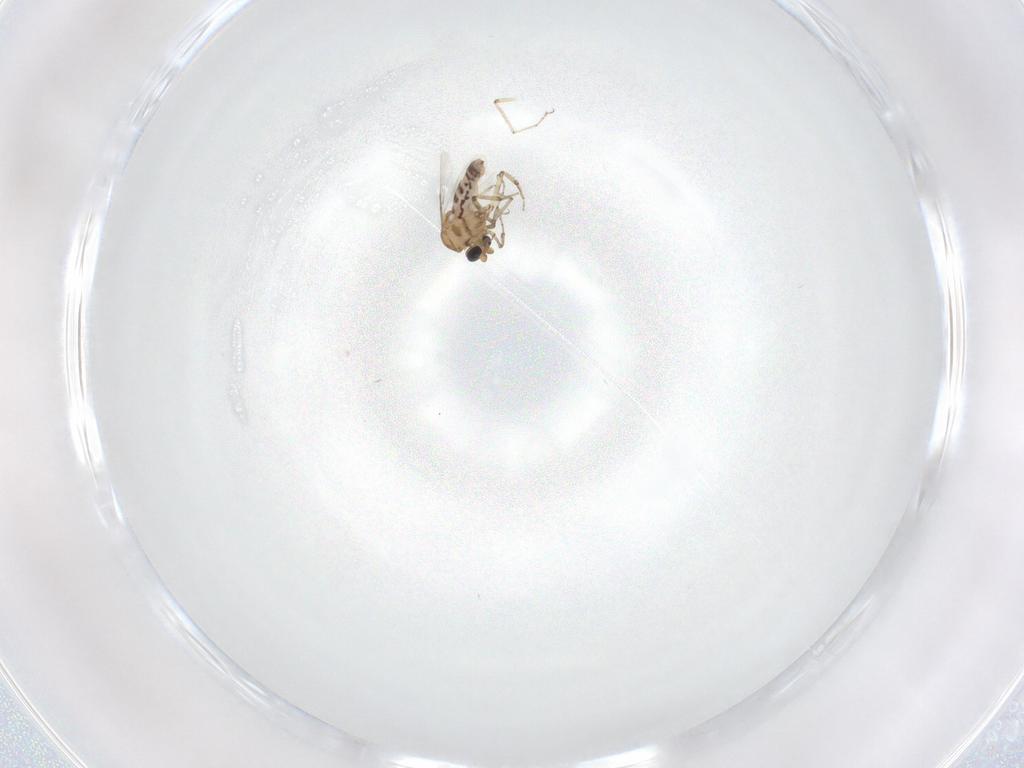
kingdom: Animalia
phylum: Arthropoda
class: Insecta
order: Diptera
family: Ceratopogonidae
